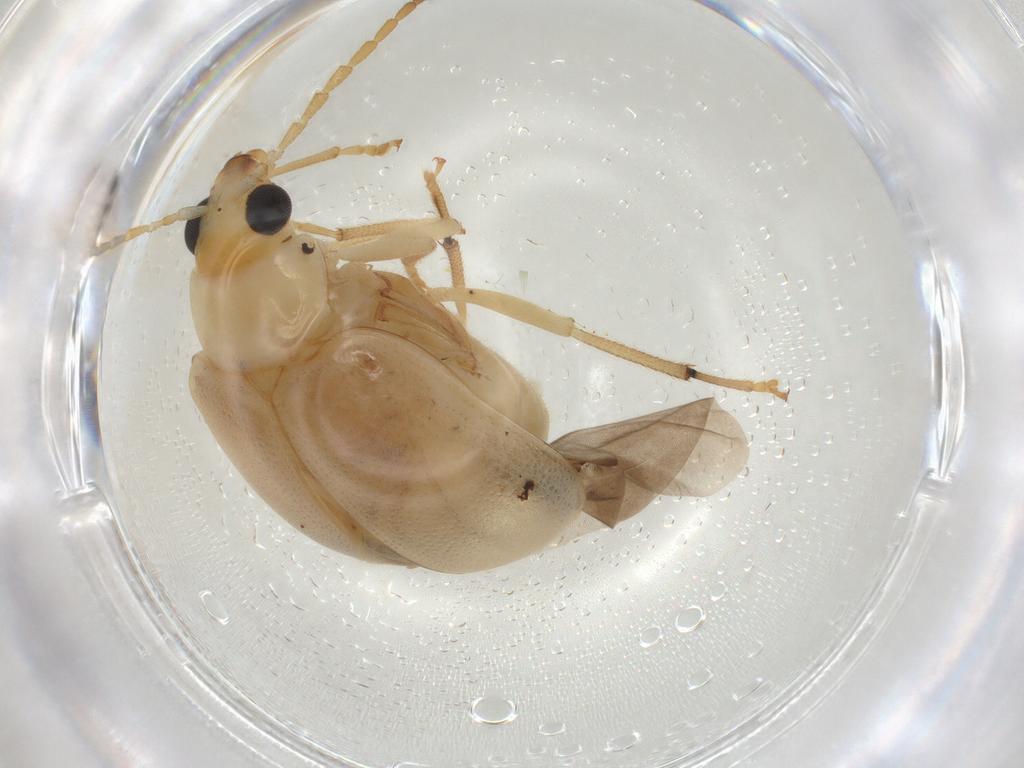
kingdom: Animalia
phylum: Arthropoda
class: Insecta
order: Coleoptera
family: Chrysomelidae
